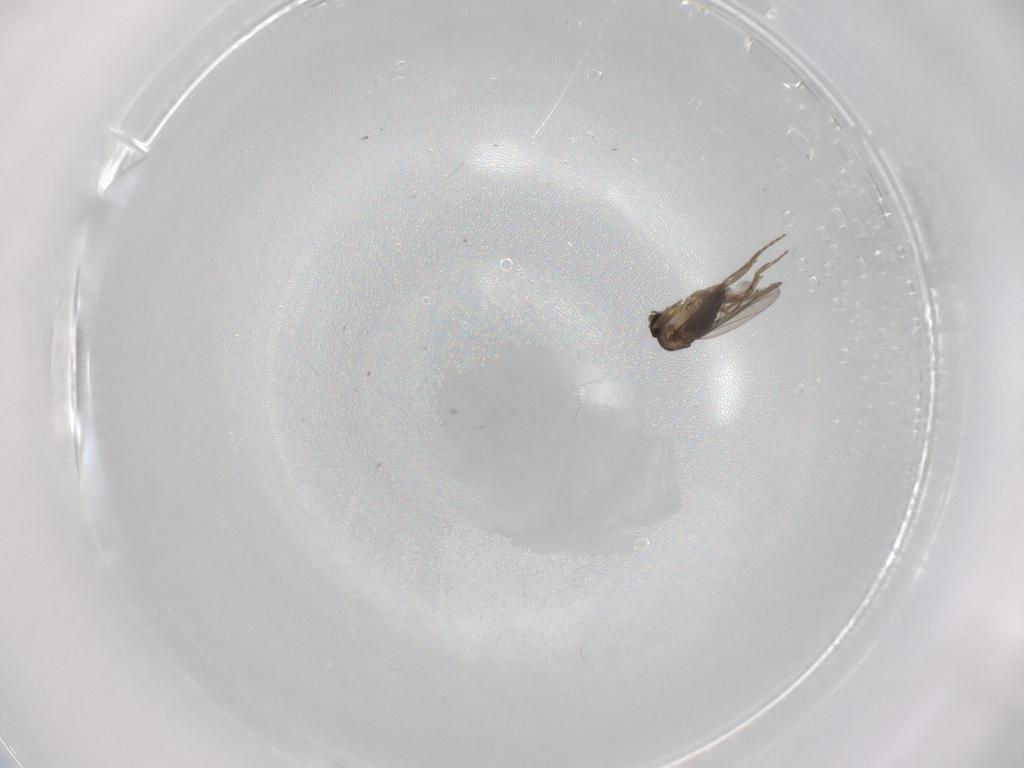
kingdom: Animalia
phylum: Arthropoda
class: Insecta
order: Diptera
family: Phoridae
